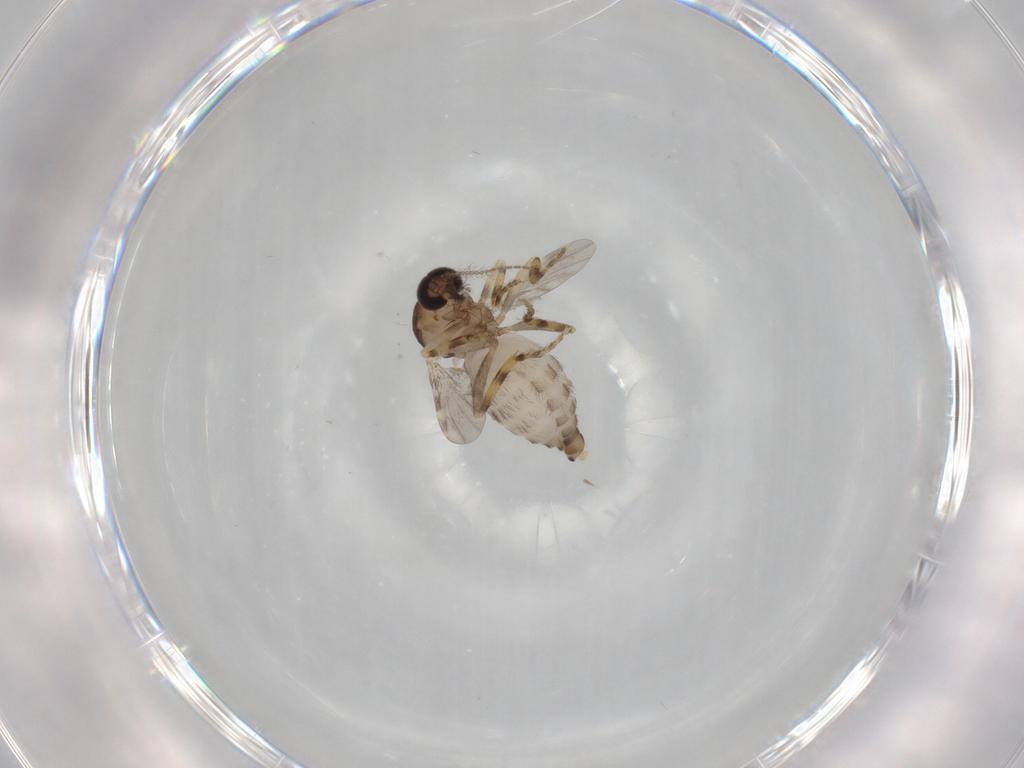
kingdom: Animalia
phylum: Arthropoda
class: Insecta
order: Diptera
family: Ceratopogonidae
